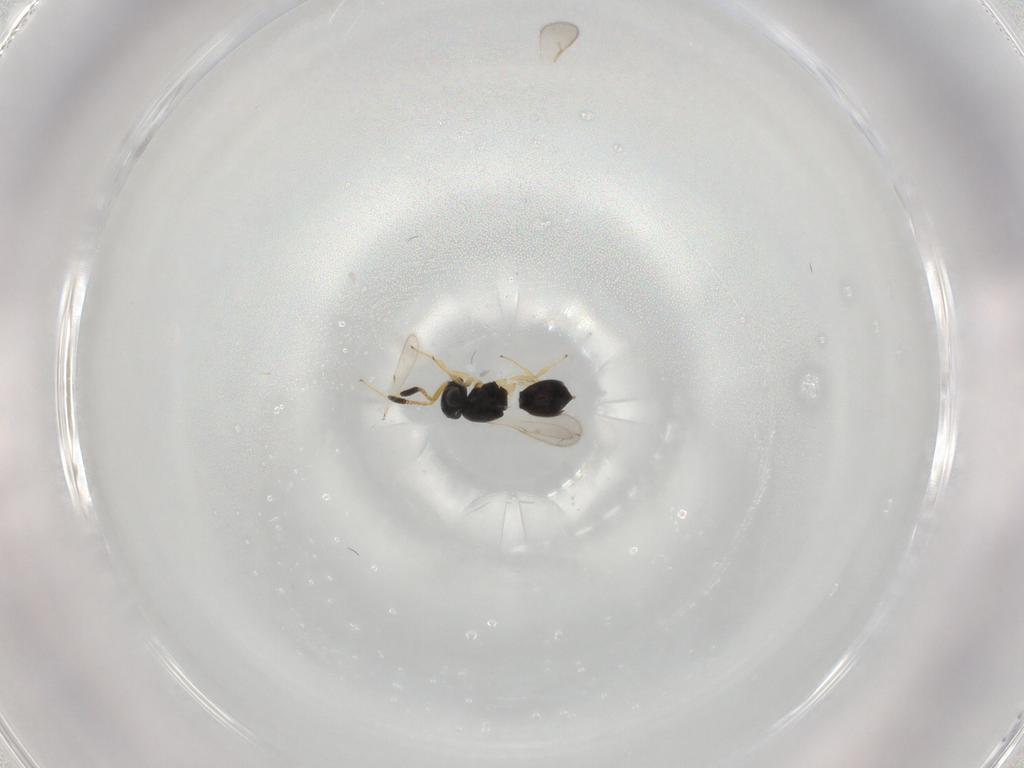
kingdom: Animalia
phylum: Arthropoda
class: Insecta
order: Hymenoptera
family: Scelionidae
